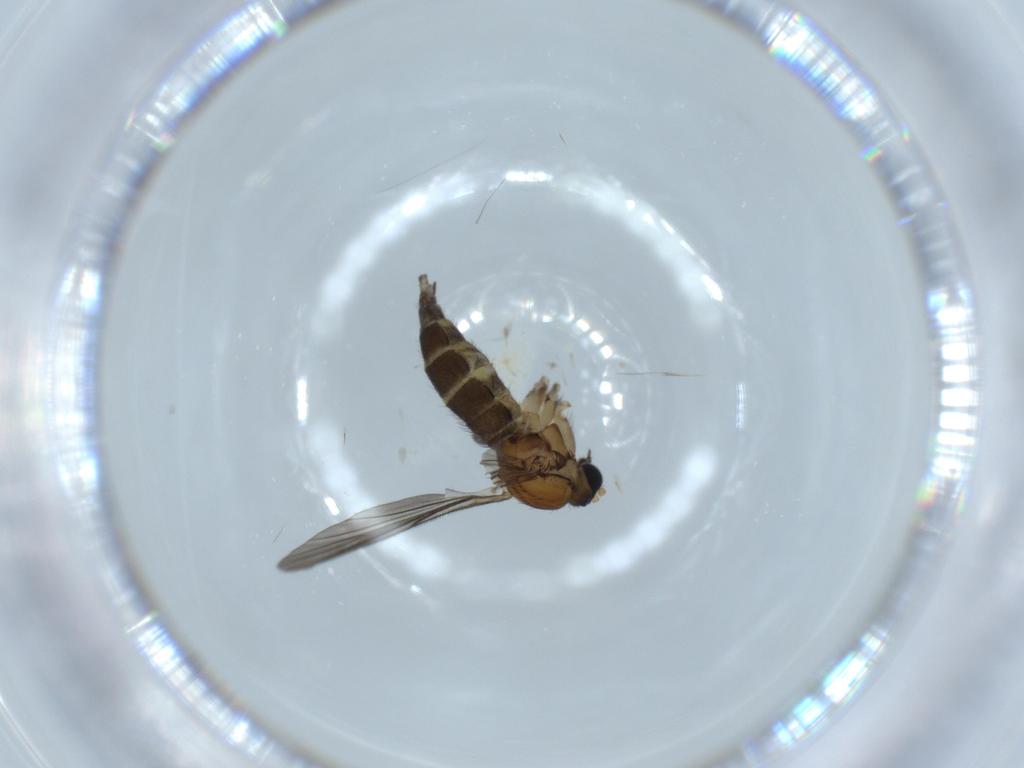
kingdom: Animalia
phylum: Arthropoda
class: Insecta
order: Diptera
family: Sciaridae
